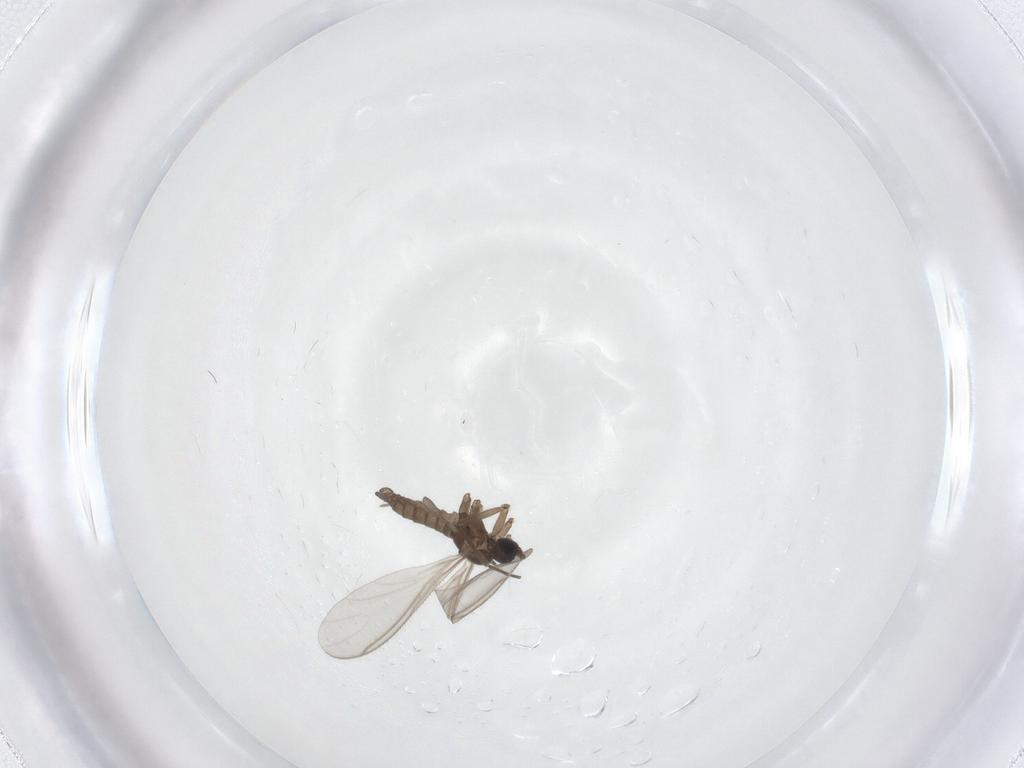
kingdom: Animalia
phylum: Arthropoda
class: Insecta
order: Diptera
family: Sciaridae
